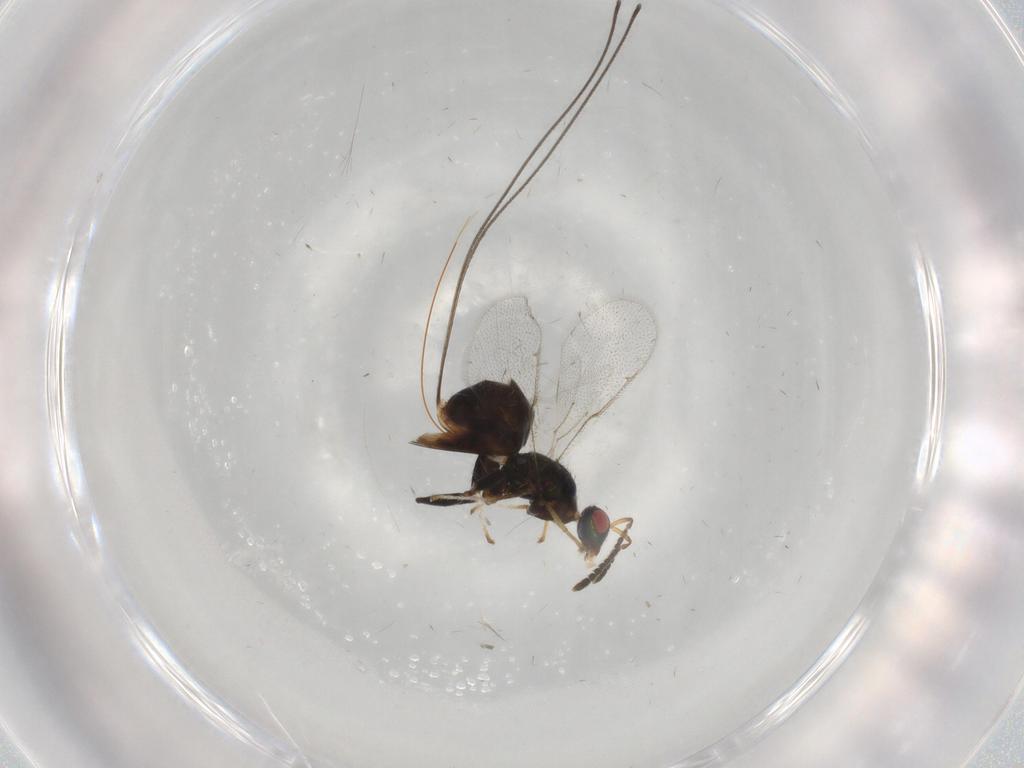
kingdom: Animalia
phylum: Arthropoda
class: Insecta
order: Hymenoptera
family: Torymidae
